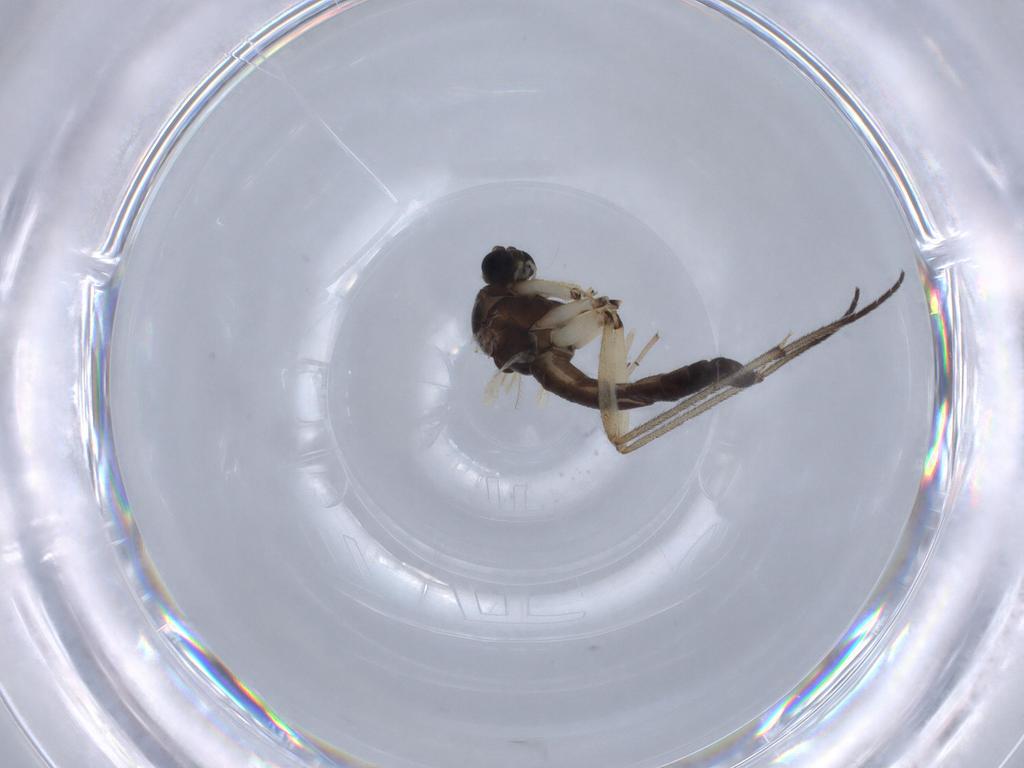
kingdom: Animalia
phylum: Arthropoda
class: Insecta
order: Diptera
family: Sciaridae
